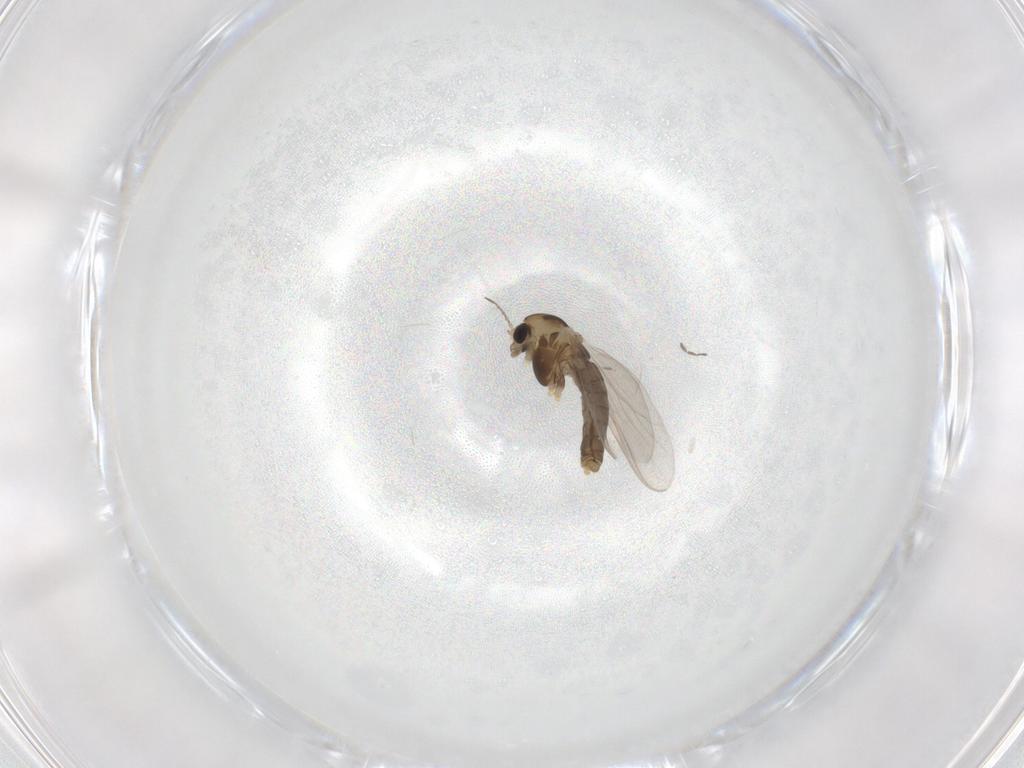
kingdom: Animalia
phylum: Arthropoda
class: Insecta
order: Diptera
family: Chironomidae
